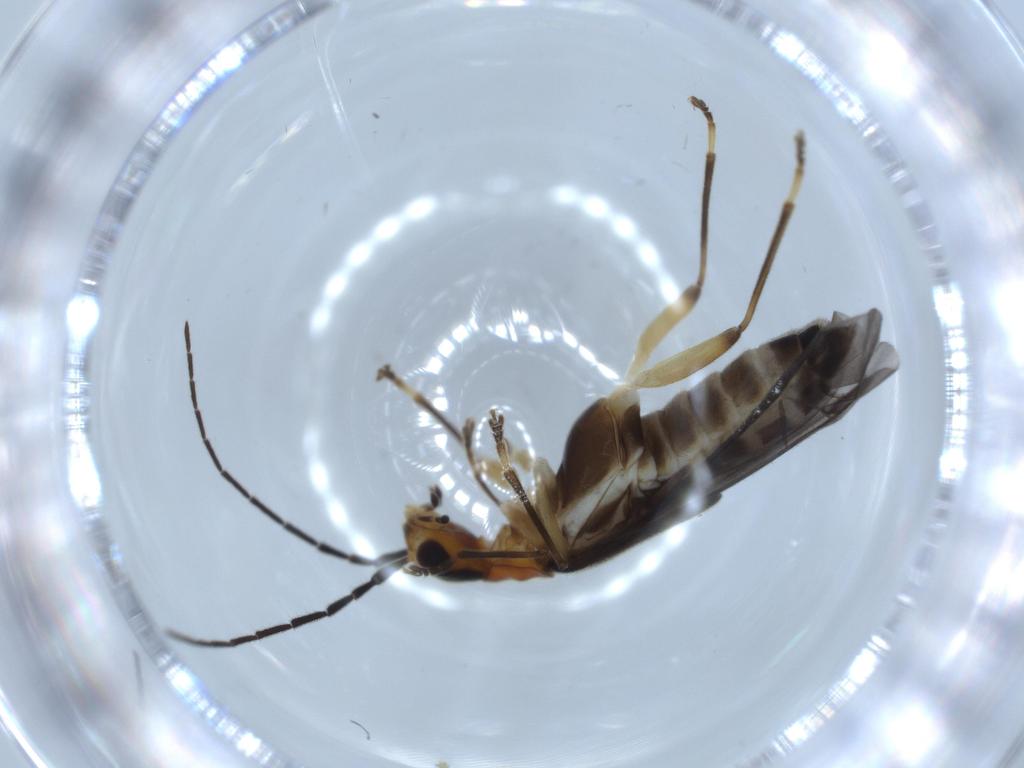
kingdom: Animalia
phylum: Arthropoda
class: Insecta
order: Coleoptera
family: Cantharidae
